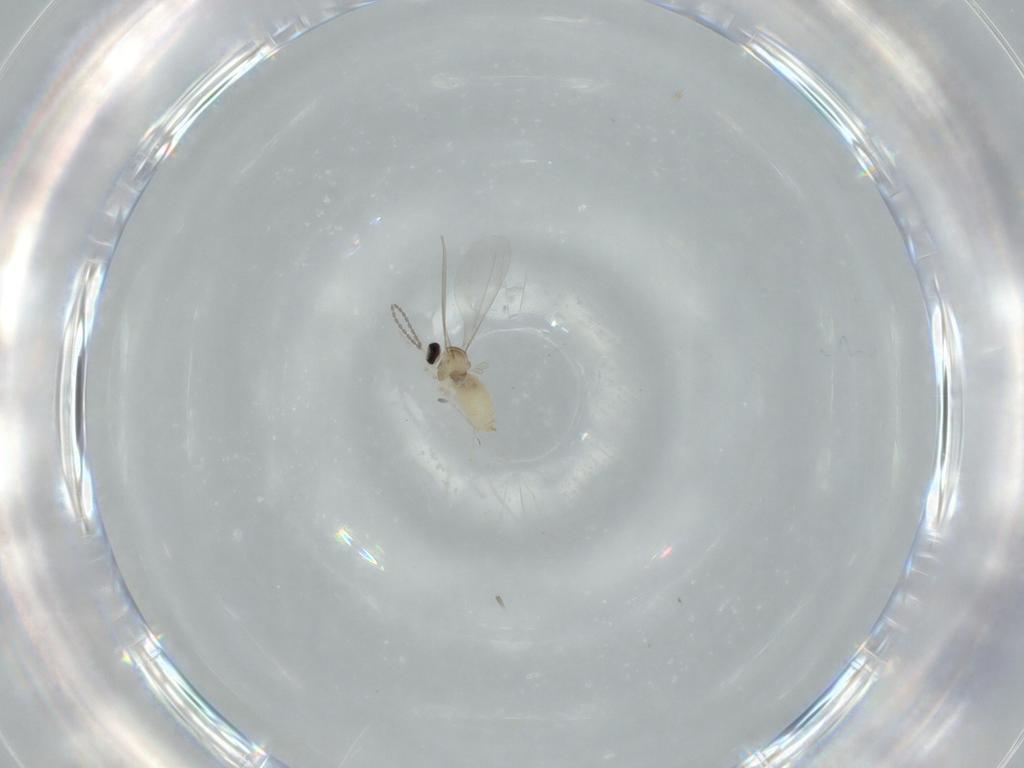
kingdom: Animalia
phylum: Arthropoda
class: Insecta
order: Diptera
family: Cecidomyiidae
